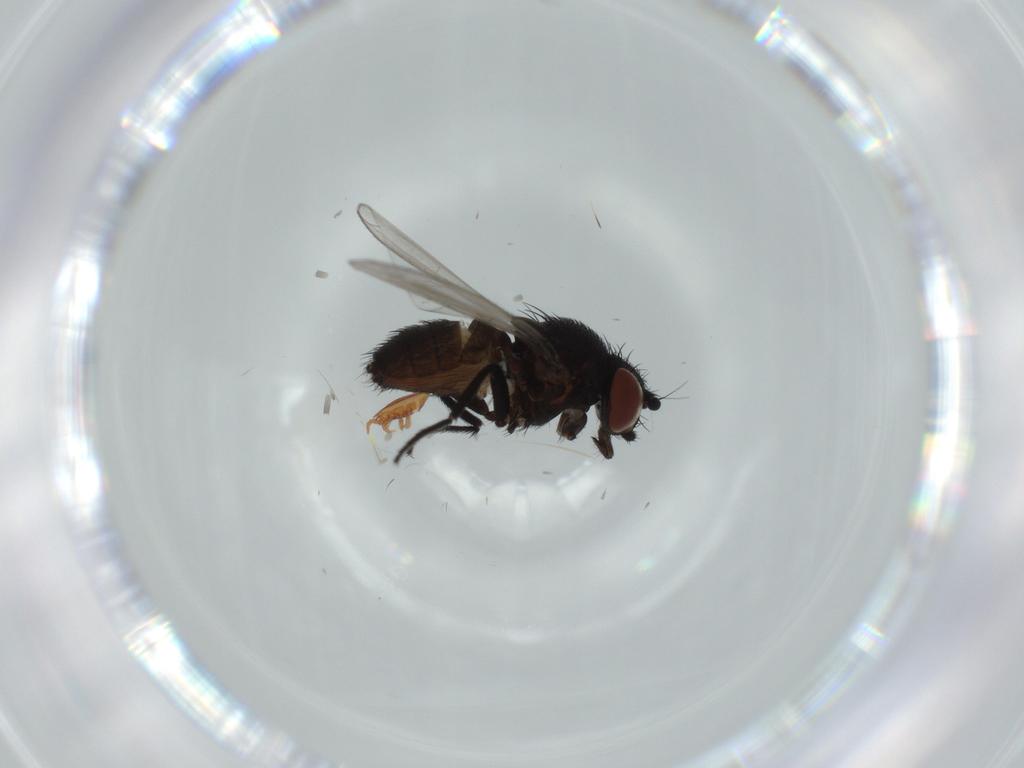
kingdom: Animalia
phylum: Arthropoda
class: Insecta
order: Diptera
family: Milichiidae
